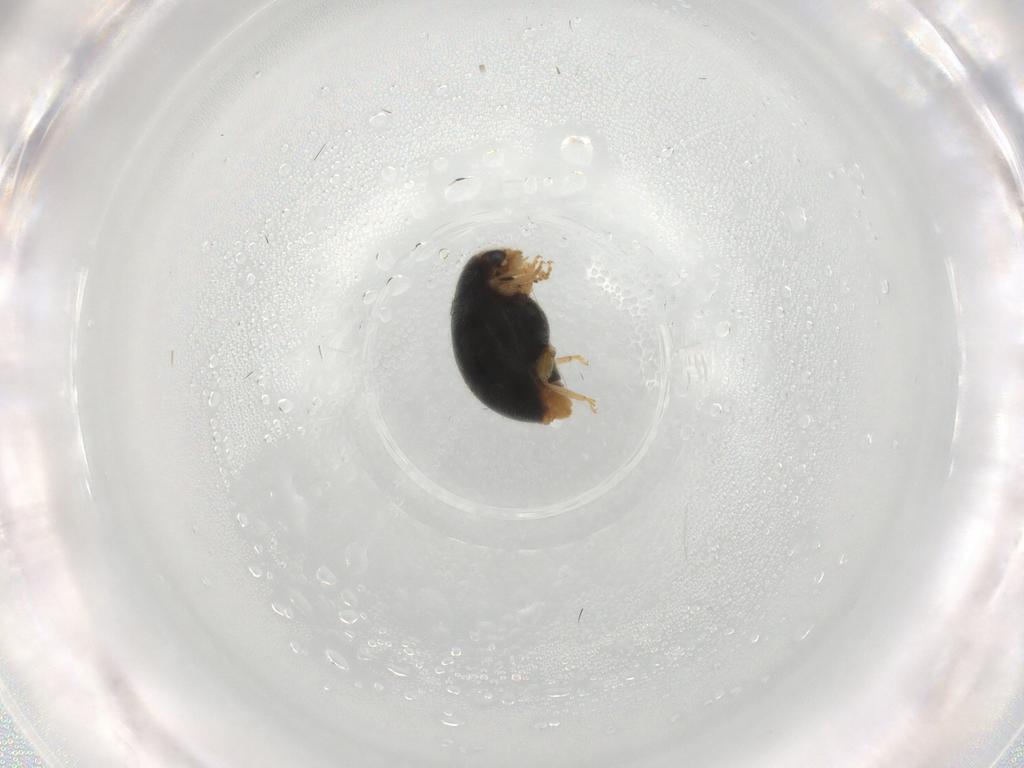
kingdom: Animalia
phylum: Arthropoda
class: Insecta
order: Coleoptera
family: Coccinellidae
